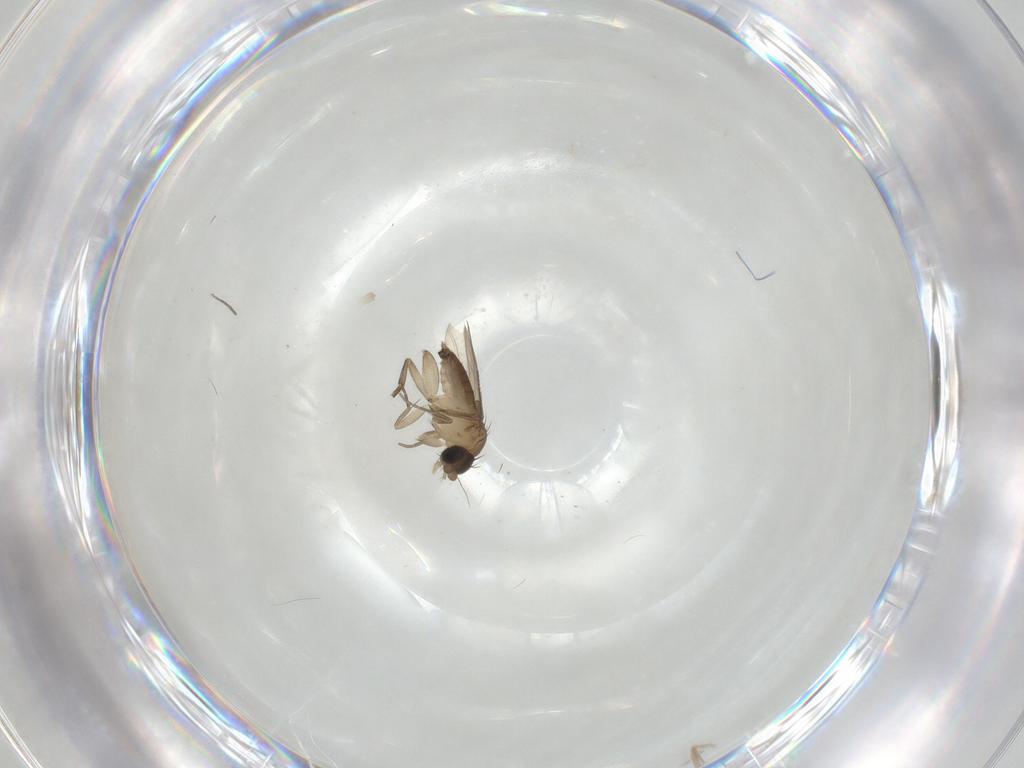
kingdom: Animalia
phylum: Arthropoda
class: Insecta
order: Diptera
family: Phoridae
